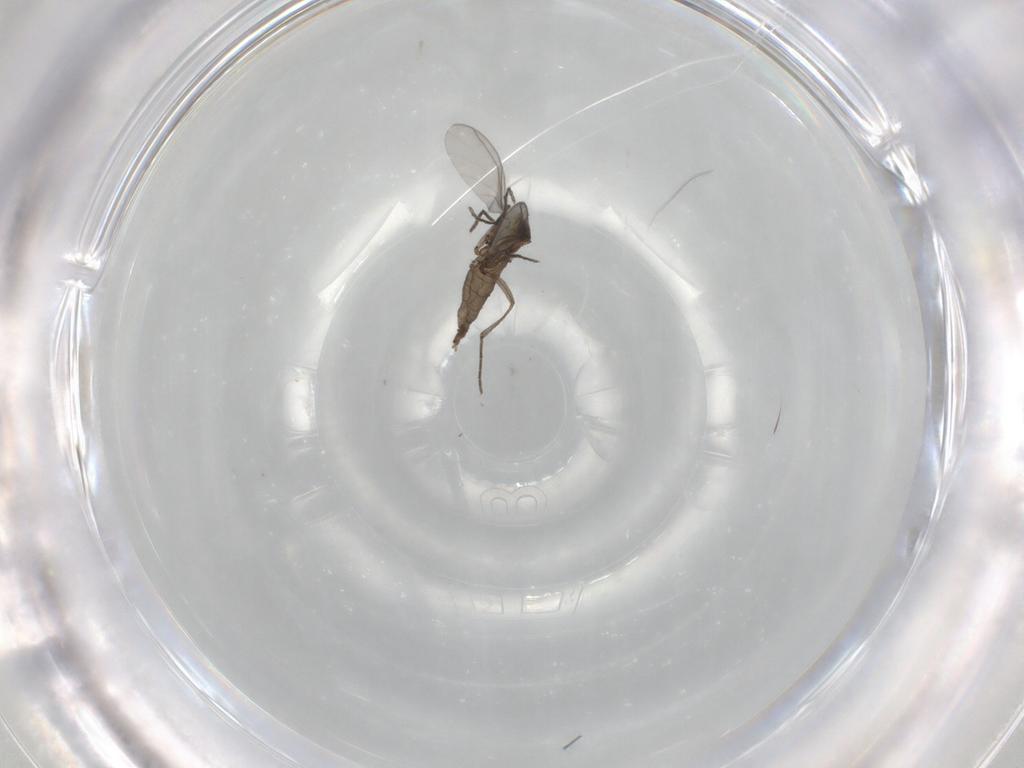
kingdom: Animalia
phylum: Arthropoda
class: Insecta
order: Diptera
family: Sciaridae
